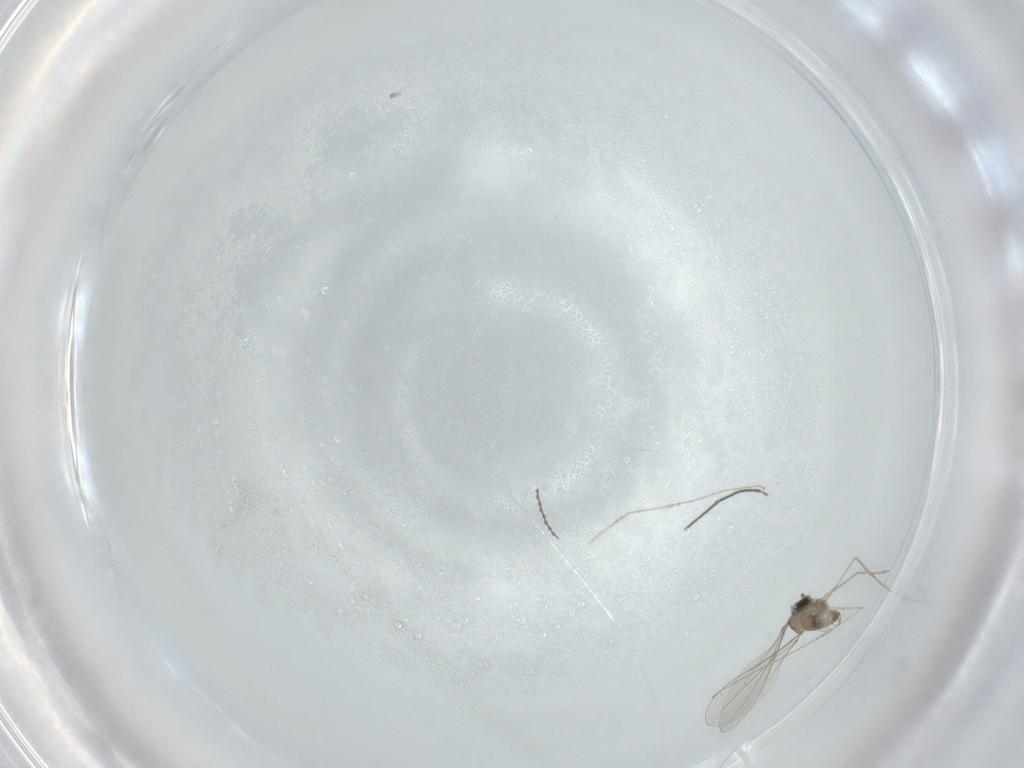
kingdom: Animalia
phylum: Arthropoda
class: Insecta
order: Diptera
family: Cecidomyiidae
